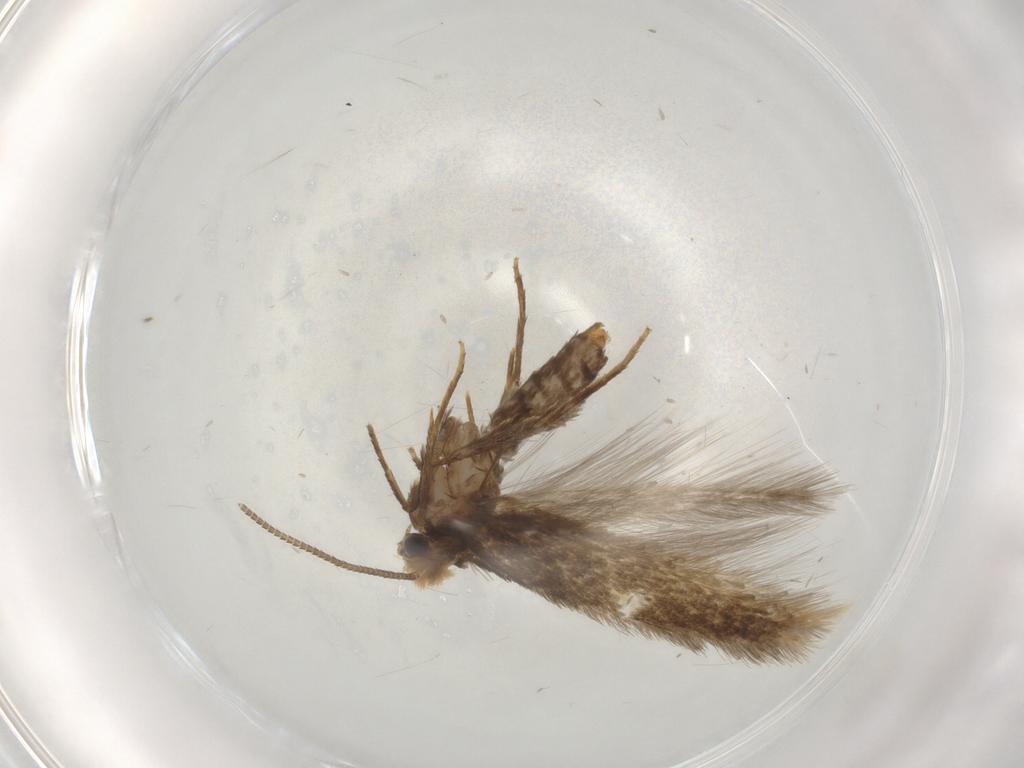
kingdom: Animalia
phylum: Arthropoda
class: Insecta
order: Lepidoptera
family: Nepticulidae
